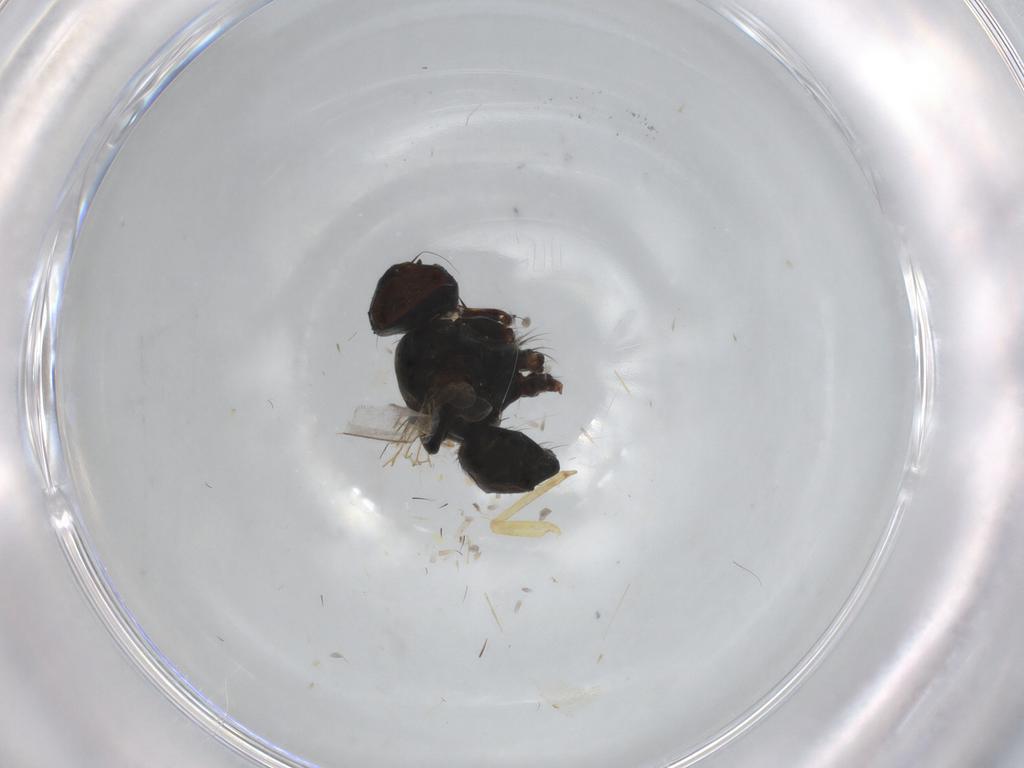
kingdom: Animalia
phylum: Arthropoda
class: Insecta
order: Diptera
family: Muscidae
